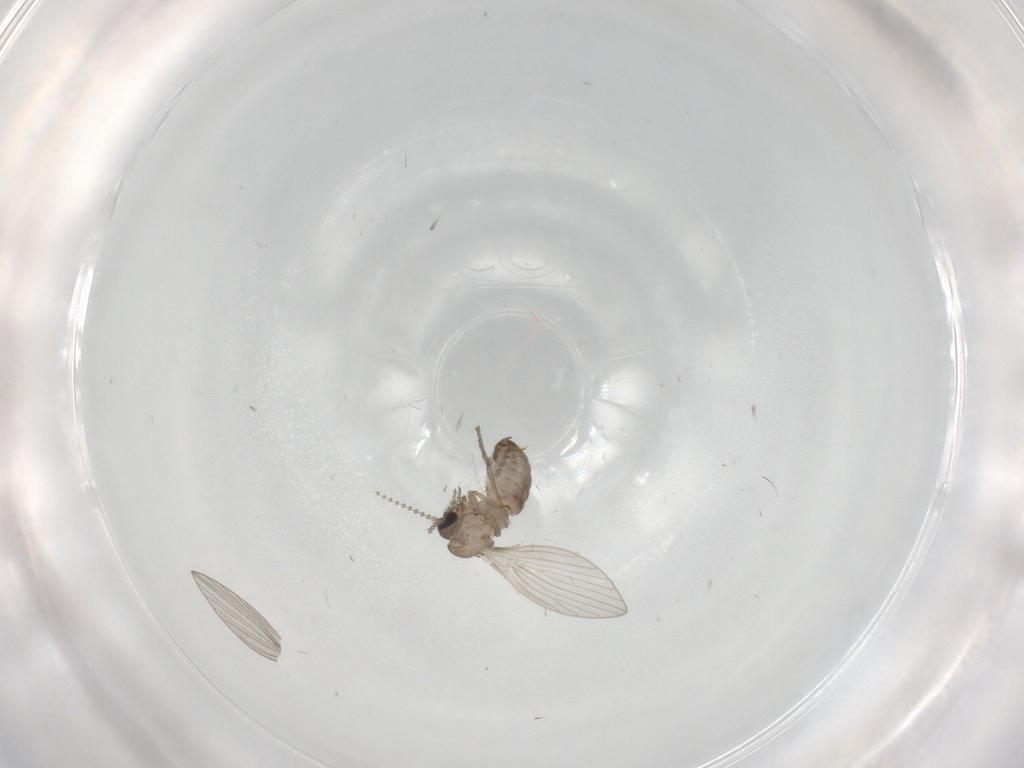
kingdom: Animalia
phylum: Arthropoda
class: Insecta
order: Diptera
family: Psychodidae
